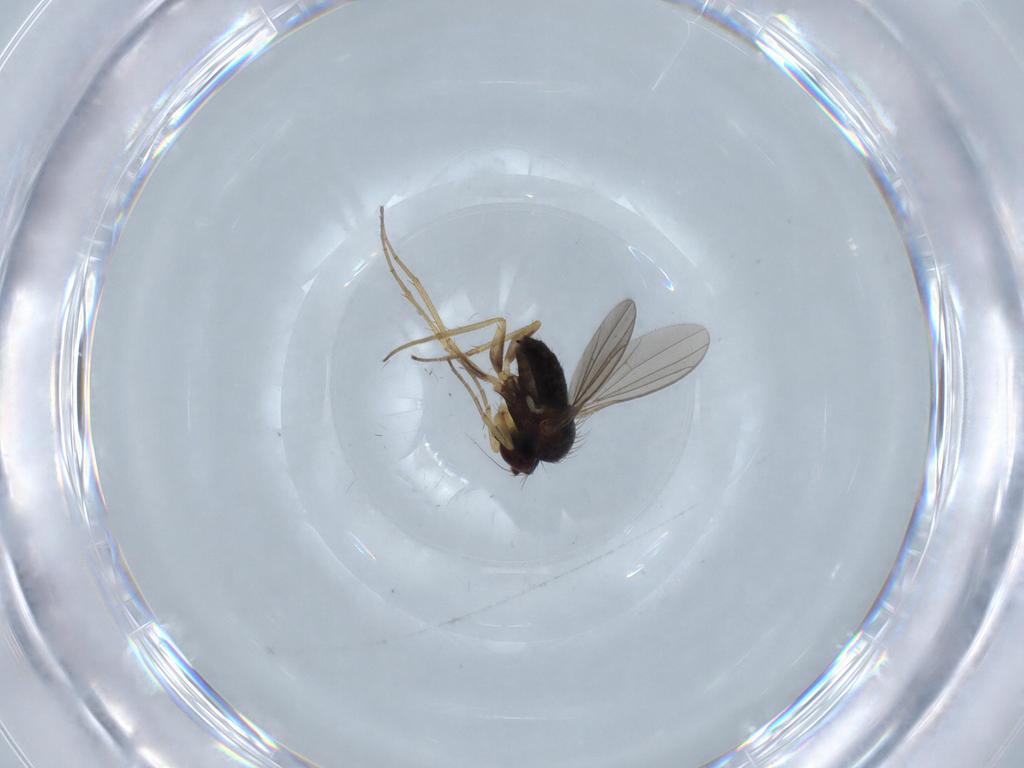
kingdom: Animalia
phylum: Arthropoda
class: Insecta
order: Diptera
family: Dolichopodidae
